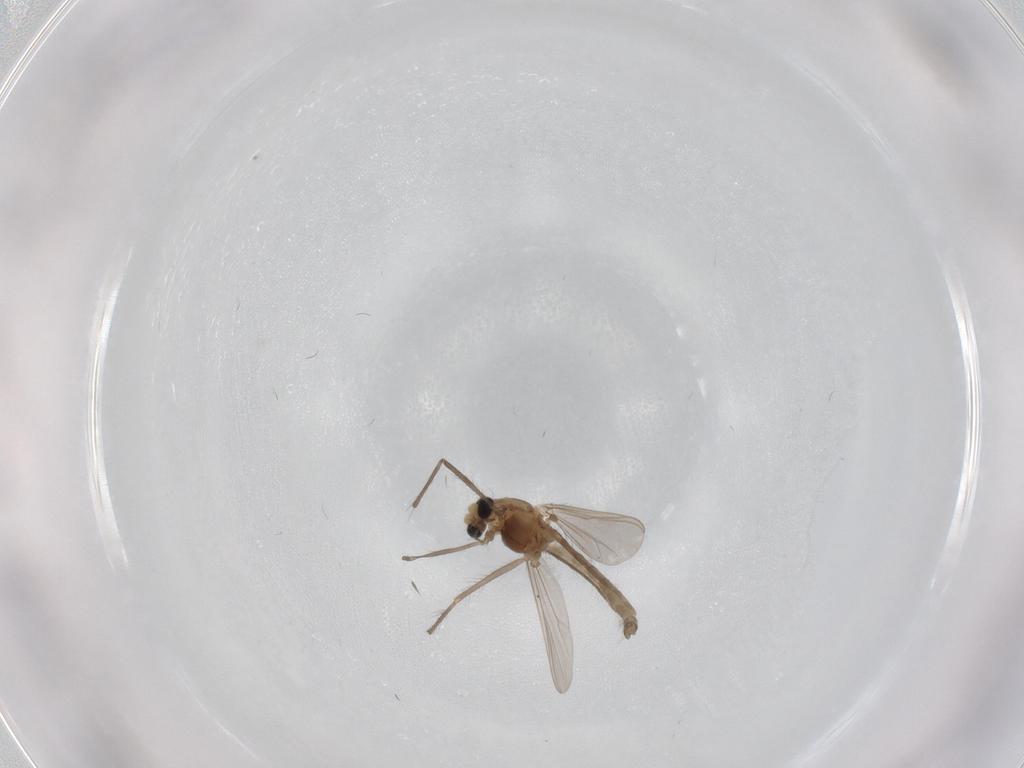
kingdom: Animalia
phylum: Arthropoda
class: Insecta
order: Diptera
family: Chironomidae
